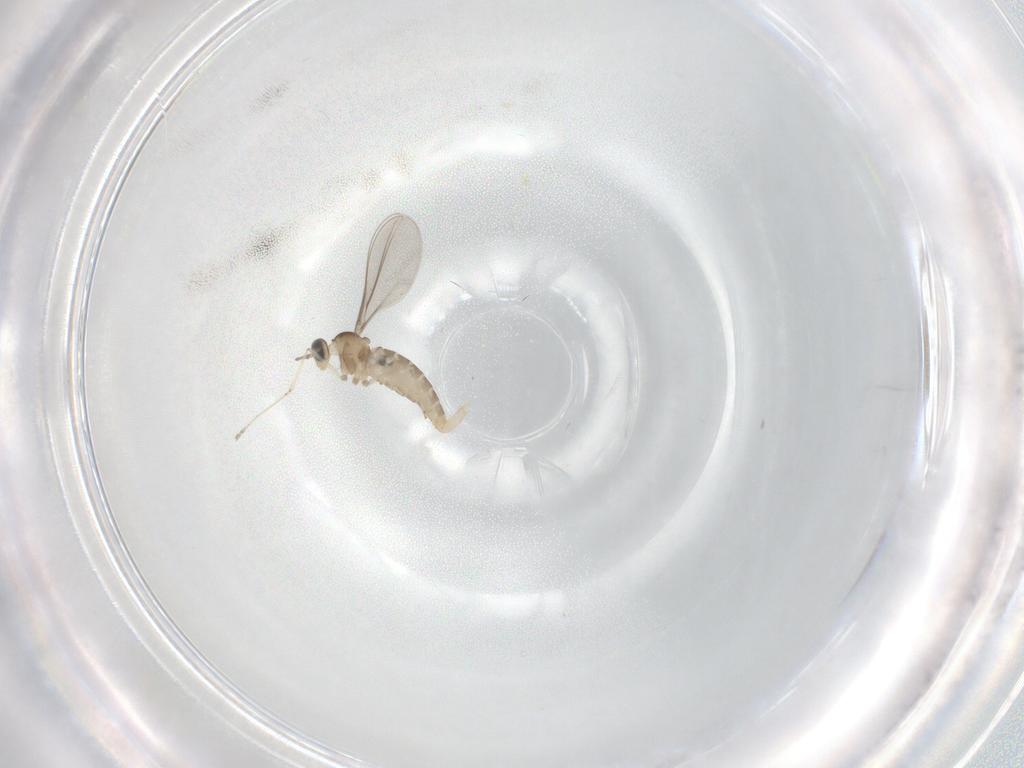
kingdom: Animalia
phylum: Arthropoda
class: Insecta
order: Diptera
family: Cecidomyiidae
